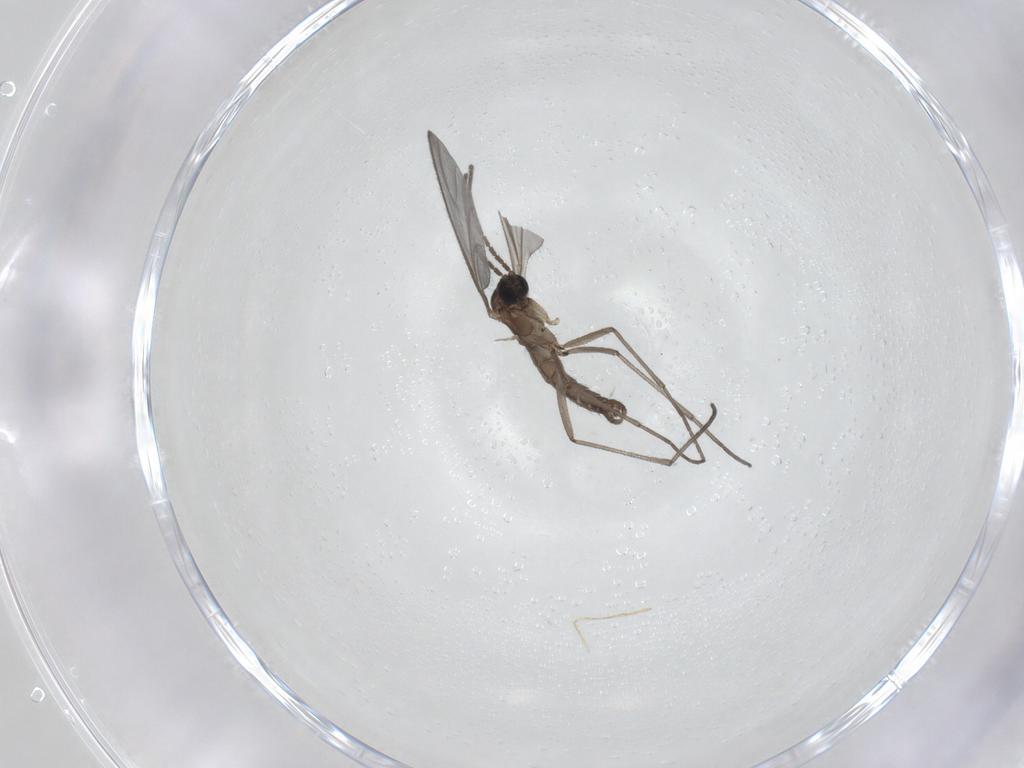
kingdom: Animalia
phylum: Arthropoda
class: Insecta
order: Diptera
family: Sciaridae
